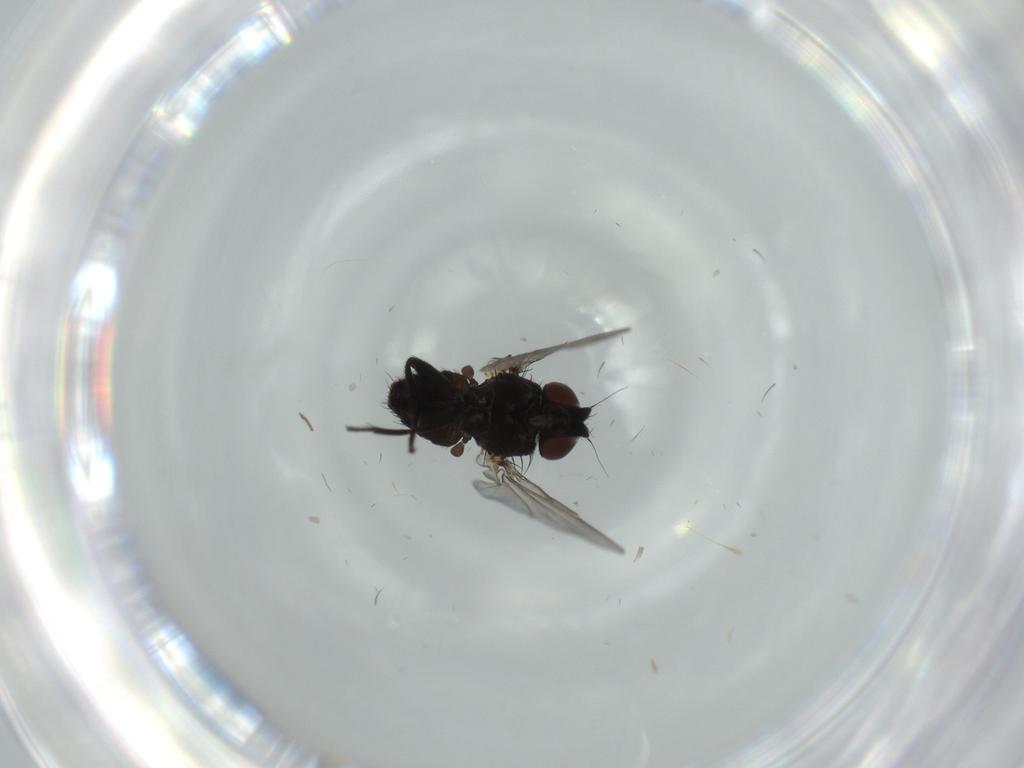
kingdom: Animalia
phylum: Arthropoda
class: Insecta
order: Diptera
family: Milichiidae
